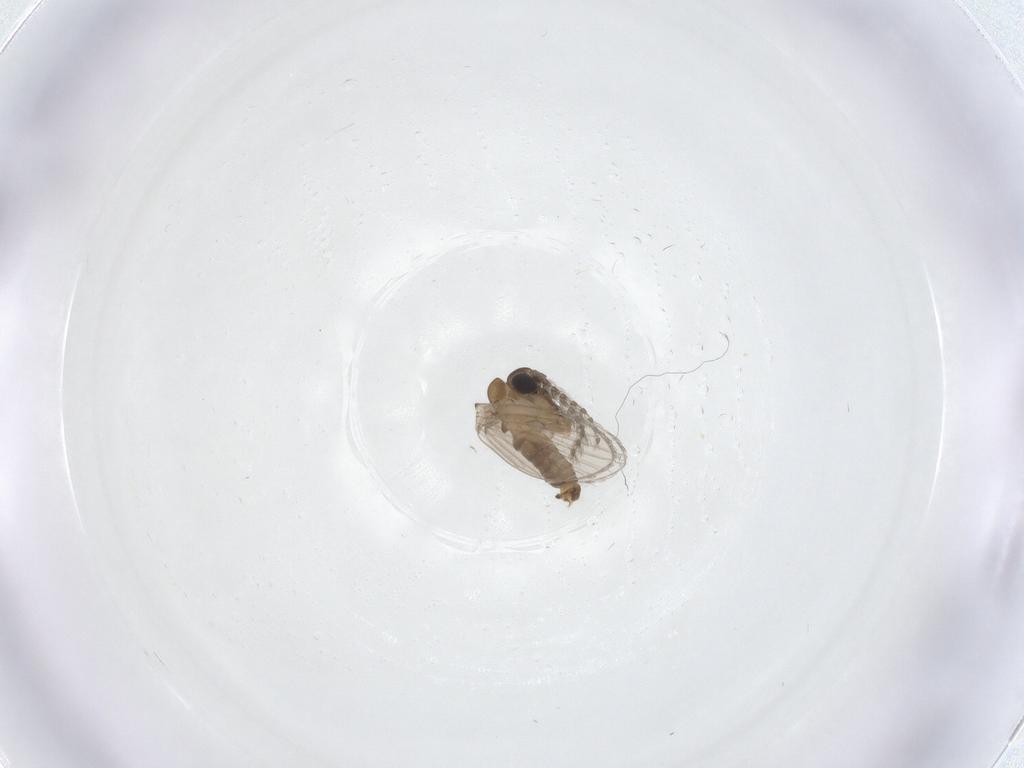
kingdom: Animalia
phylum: Arthropoda
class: Insecta
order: Diptera
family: Psychodidae
